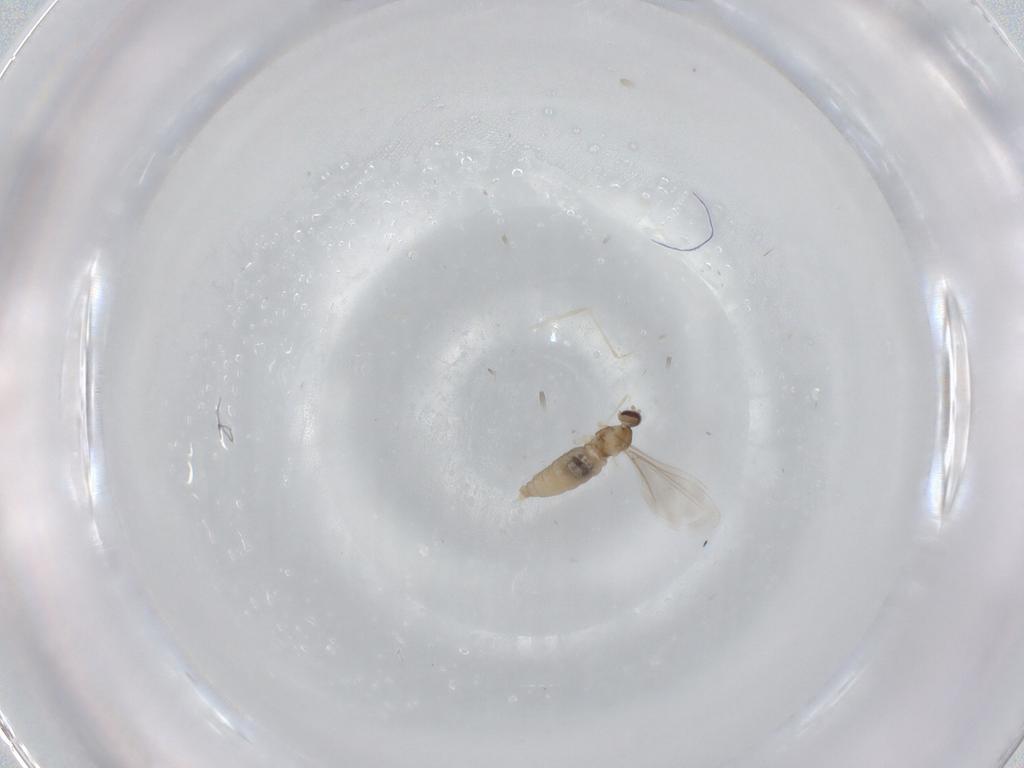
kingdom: Animalia
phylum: Arthropoda
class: Insecta
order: Diptera
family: Cecidomyiidae
